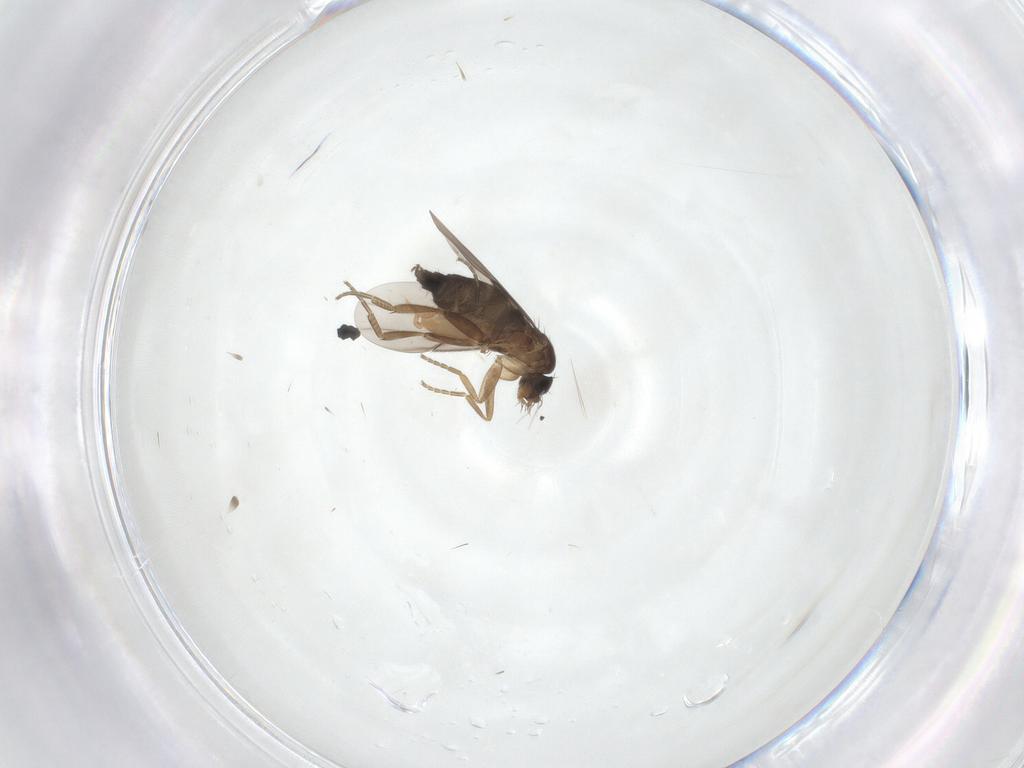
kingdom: Animalia
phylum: Arthropoda
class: Insecta
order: Diptera
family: Phoridae
